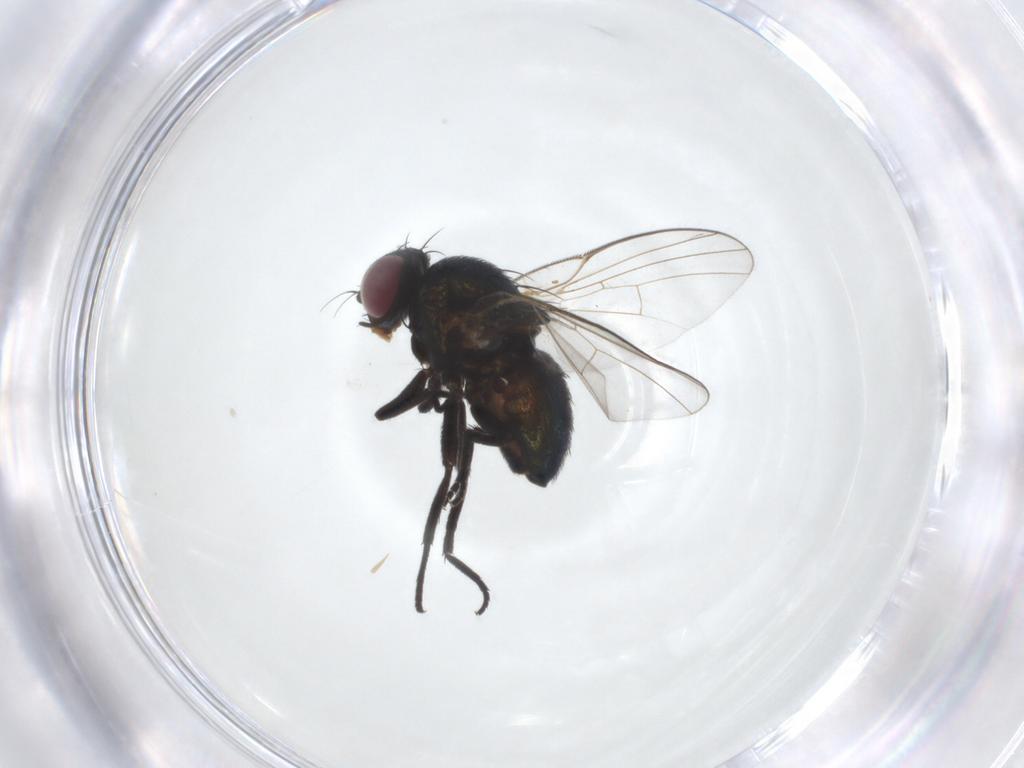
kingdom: Animalia
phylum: Arthropoda
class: Insecta
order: Diptera
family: Agromyzidae
